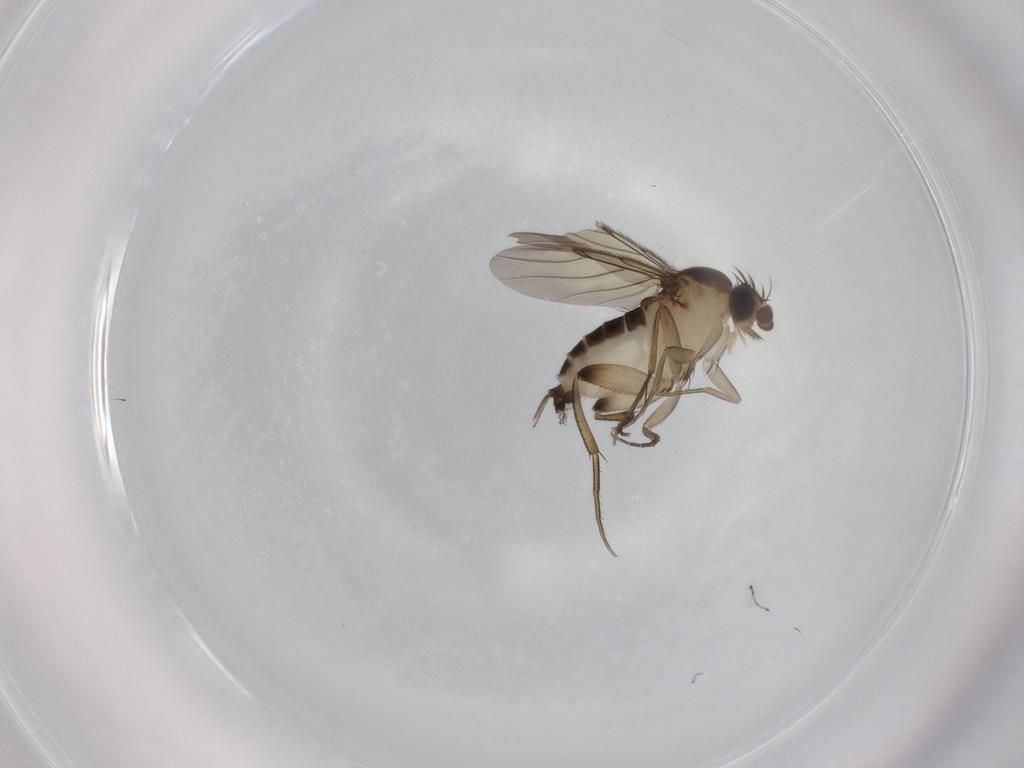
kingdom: Animalia
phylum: Arthropoda
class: Insecta
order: Diptera
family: Phoridae
